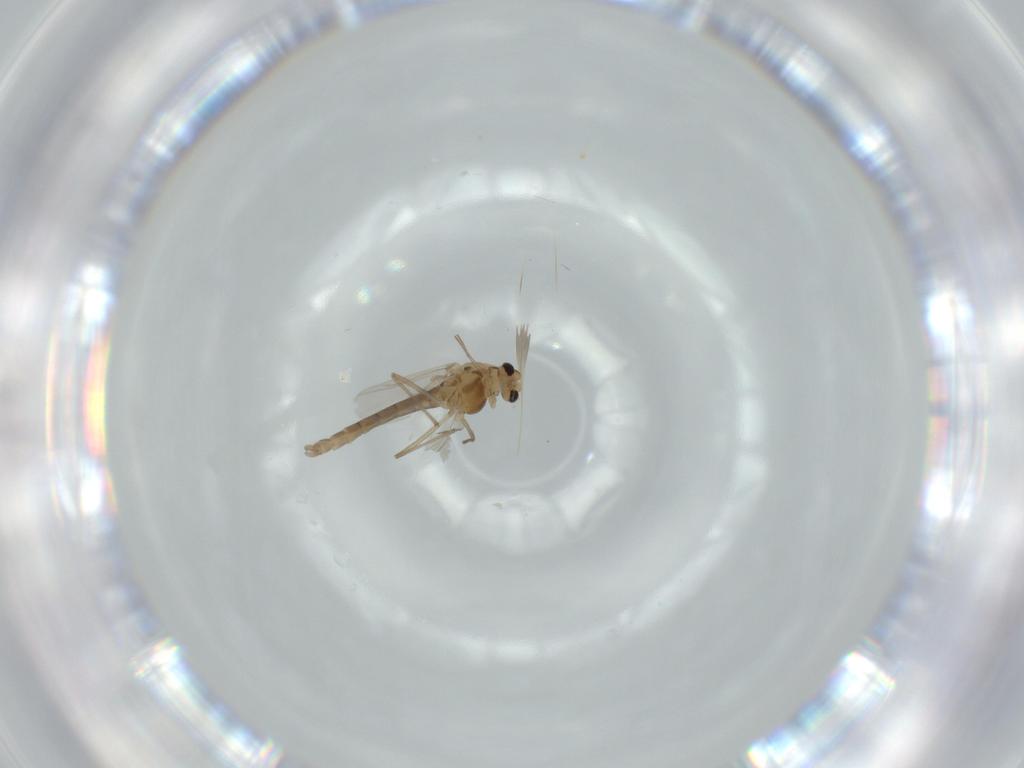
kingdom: Animalia
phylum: Arthropoda
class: Insecta
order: Diptera
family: Chironomidae
